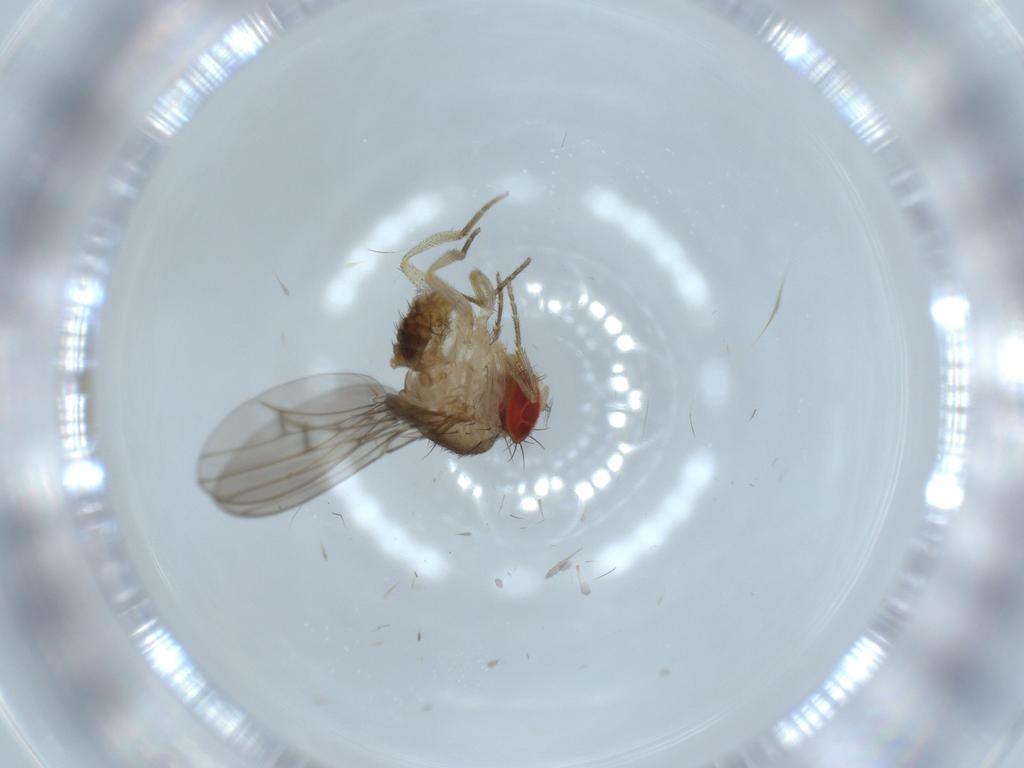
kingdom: Animalia
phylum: Arthropoda
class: Insecta
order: Diptera
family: Drosophilidae
